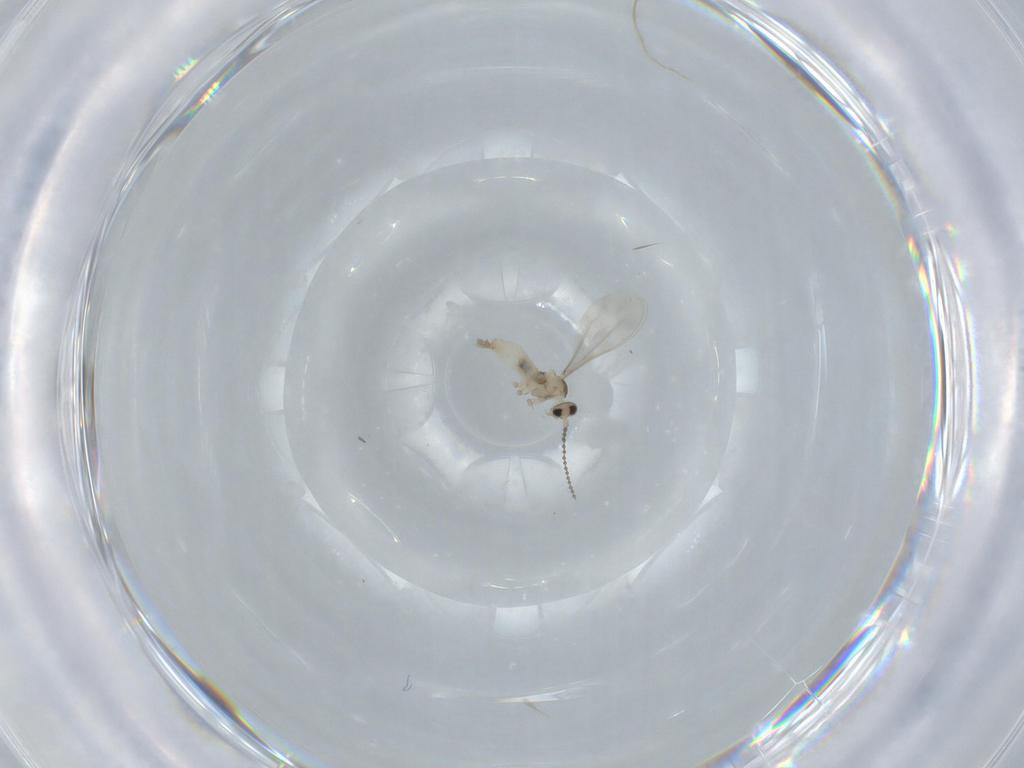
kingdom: Animalia
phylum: Arthropoda
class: Insecta
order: Diptera
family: Cecidomyiidae
